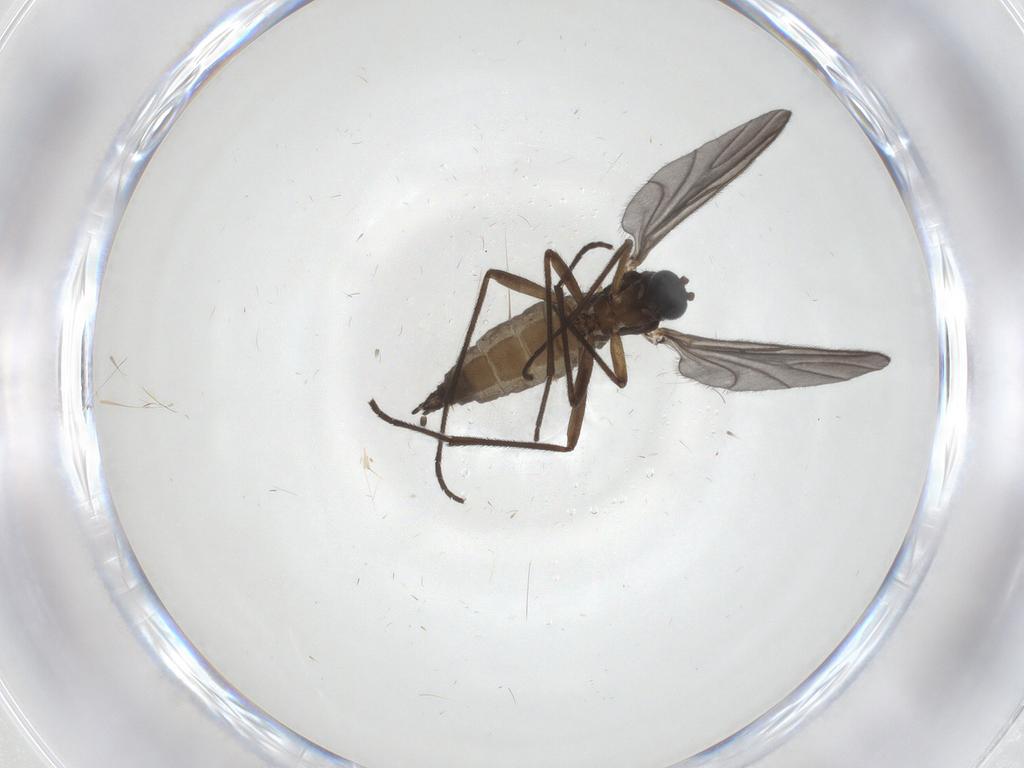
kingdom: Animalia
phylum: Arthropoda
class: Insecta
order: Diptera
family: Sciaridae
